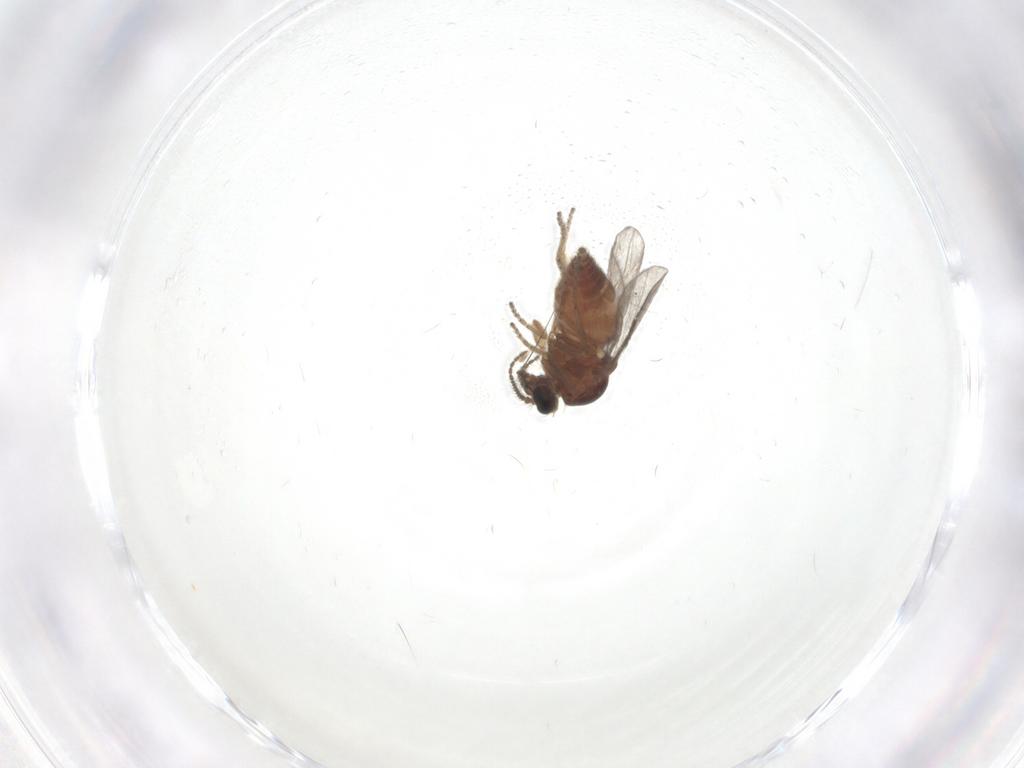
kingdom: Animalia
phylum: Arthropoda
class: Insecta
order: Diptera
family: Ceratopogonidae
